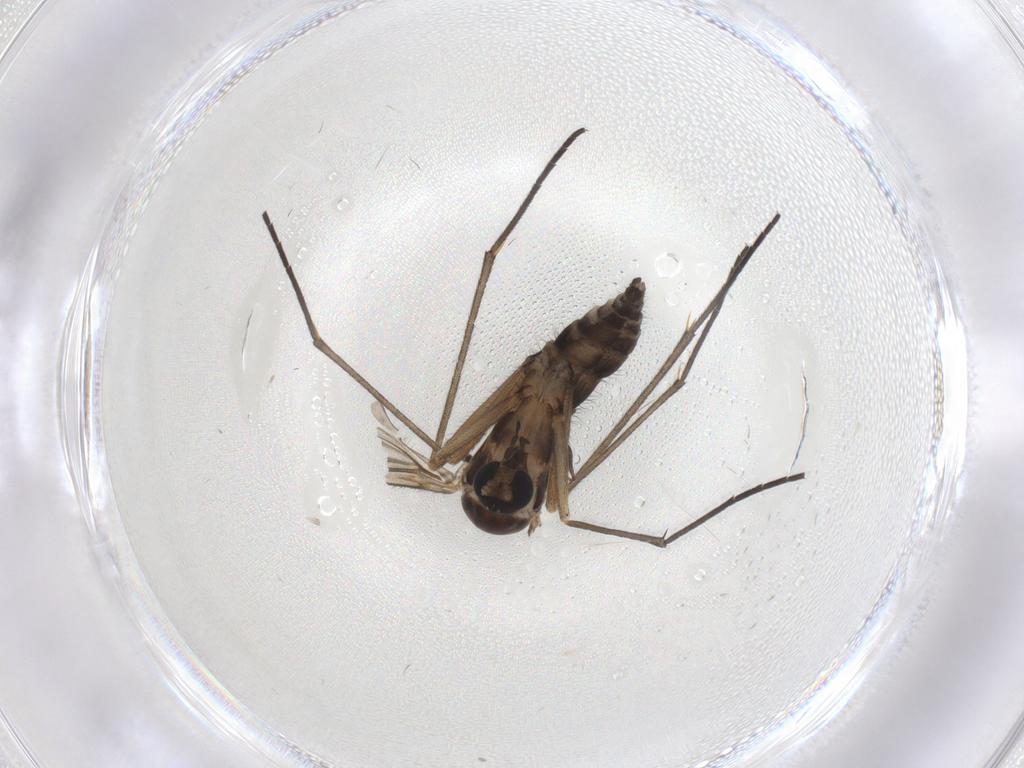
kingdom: Animalia
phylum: Arthropoda
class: Insecta
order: Diptera
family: Sciaridae
